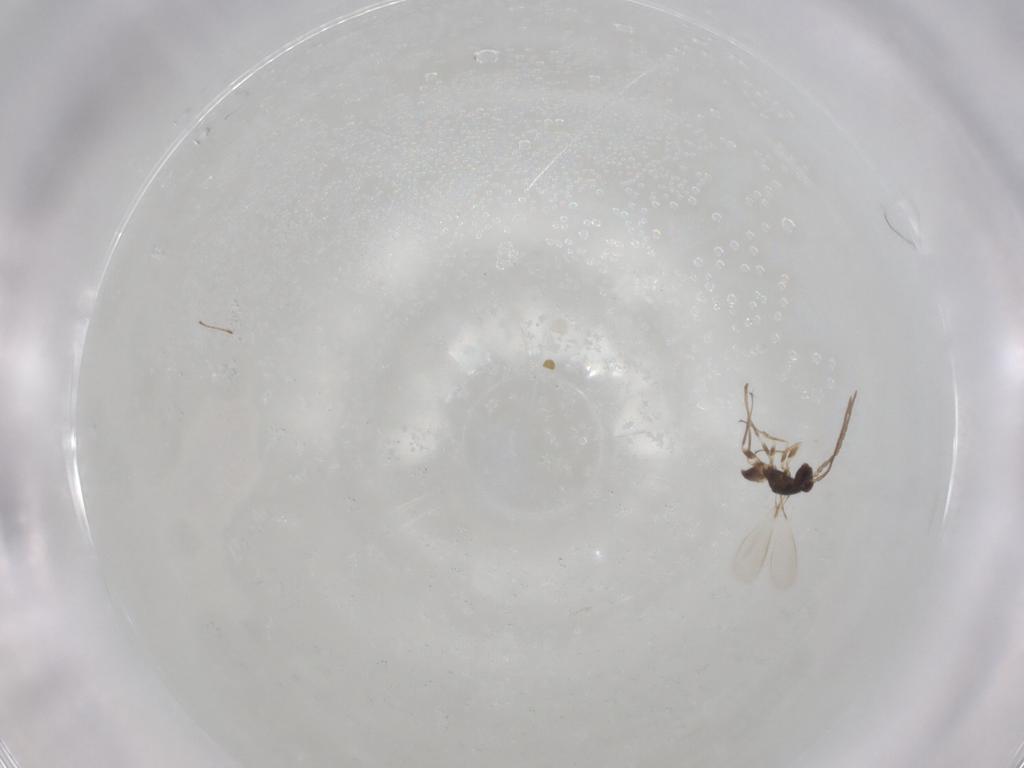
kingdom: Animalia
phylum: Arthropoda
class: Insecta
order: Hymenoptera
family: Mymaridae
